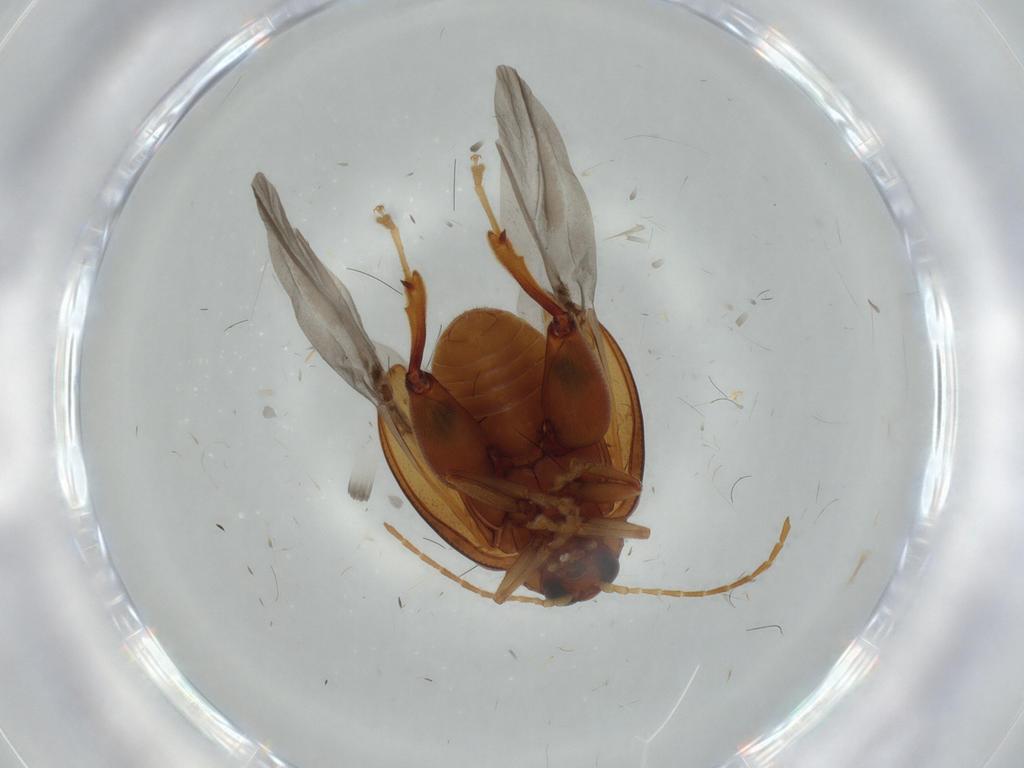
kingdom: Animalia
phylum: Arthropoda
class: Insecta
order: Coleoptera
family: Chrysomelidae
